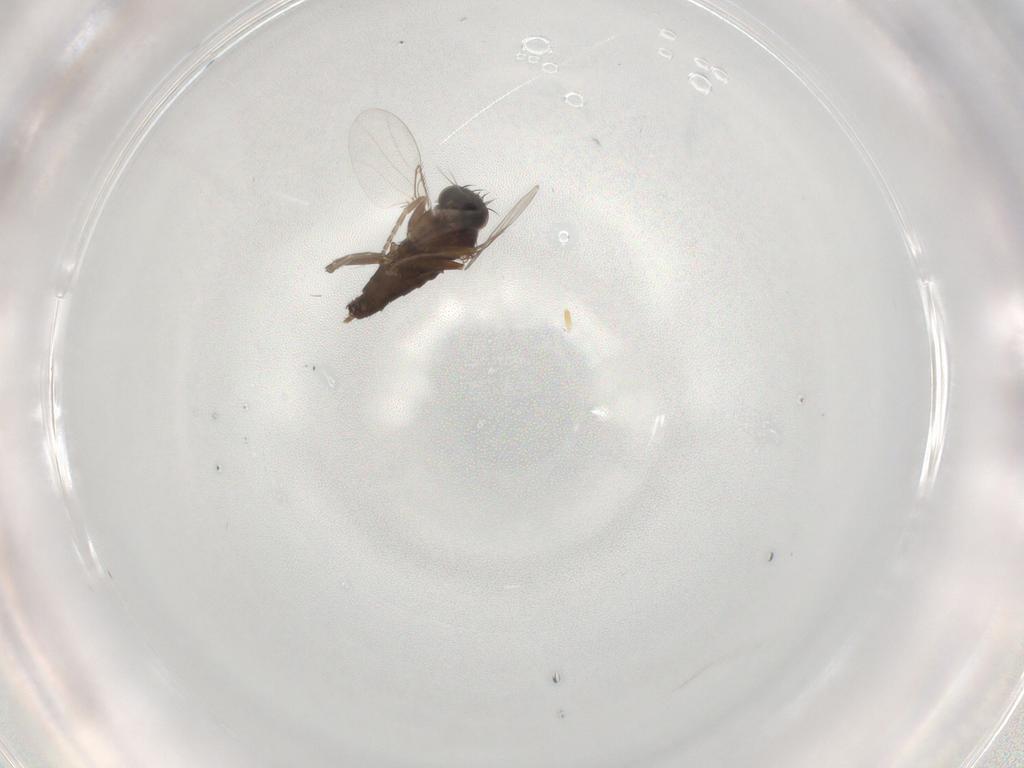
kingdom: Animalia
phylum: Arthropoda
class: Insecta
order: Diptera
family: Phoridae
